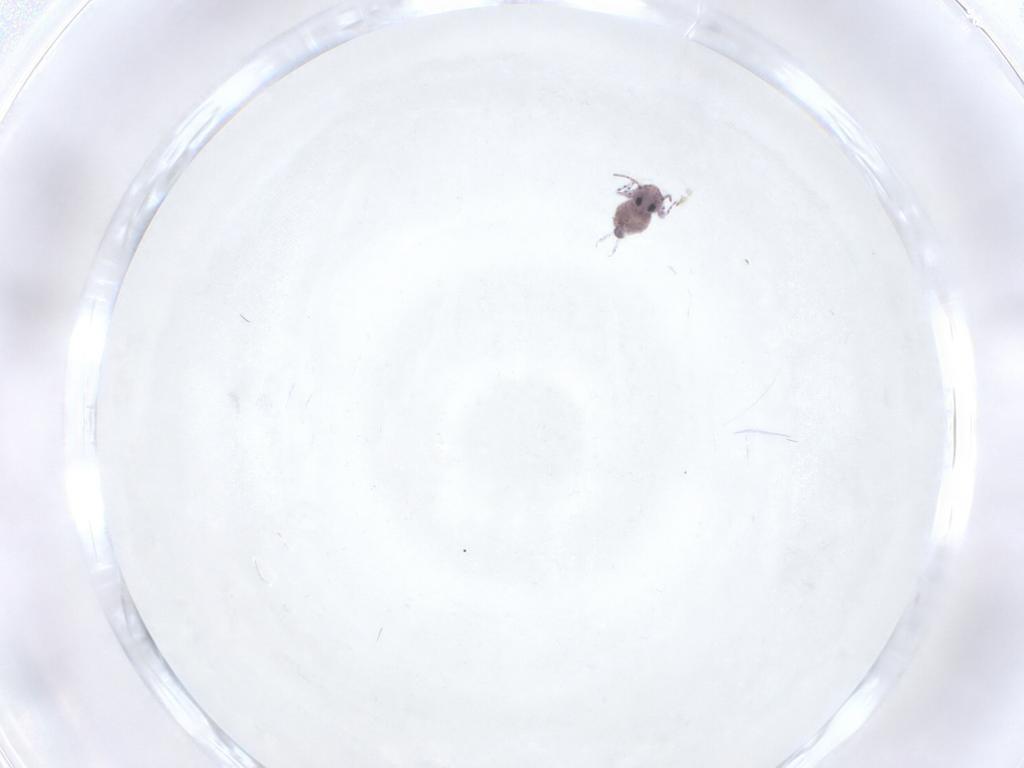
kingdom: Animalia
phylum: Arthropoda
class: Collembola
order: Symphypleona
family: Bourletiellidae
